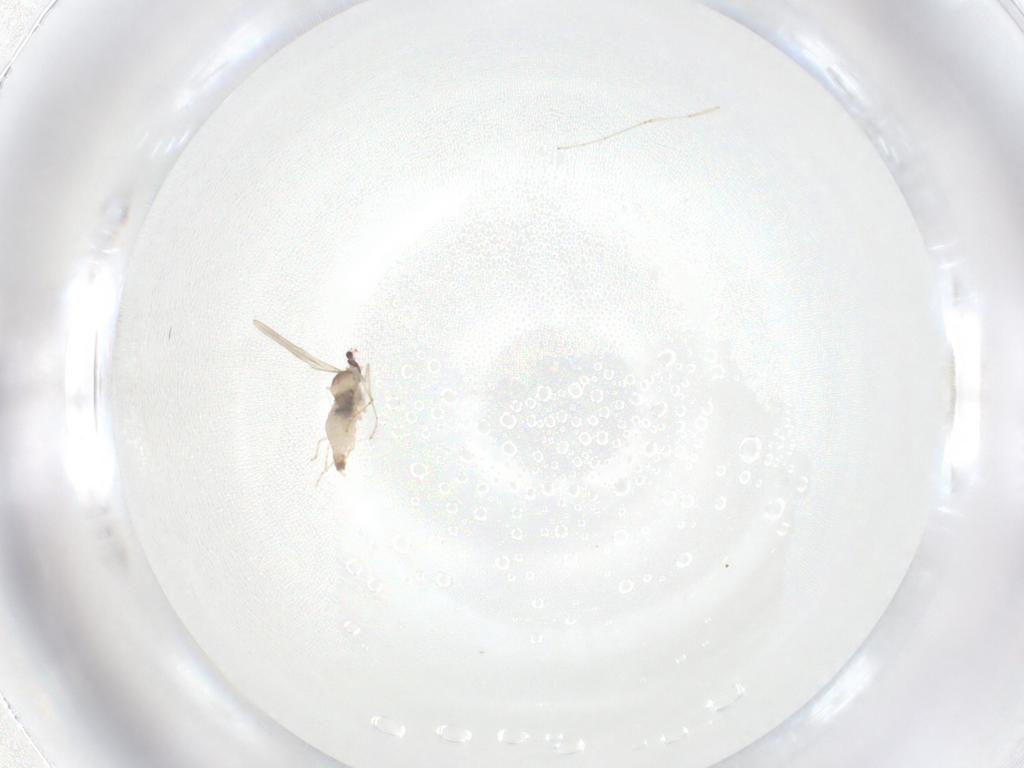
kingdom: Animalia
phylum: Arthropoda
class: Insecta
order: Diptera
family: Cecidomyiidae
